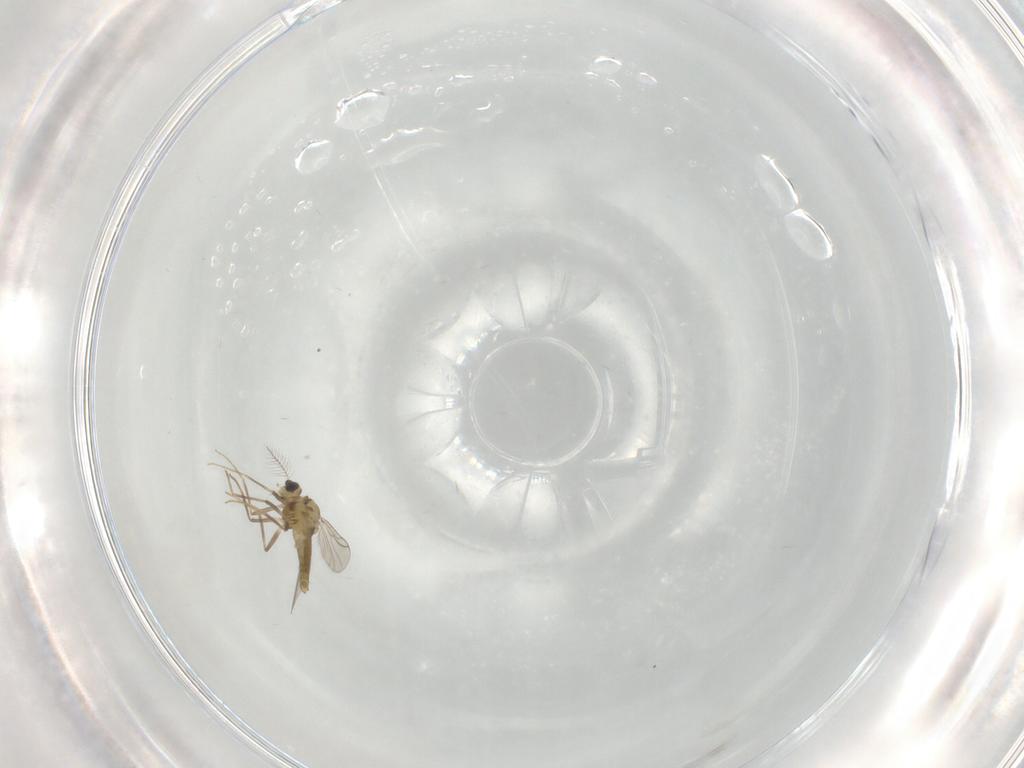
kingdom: Animalia
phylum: Arthropoda
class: Insecta
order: Diptera
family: Chironomidae
